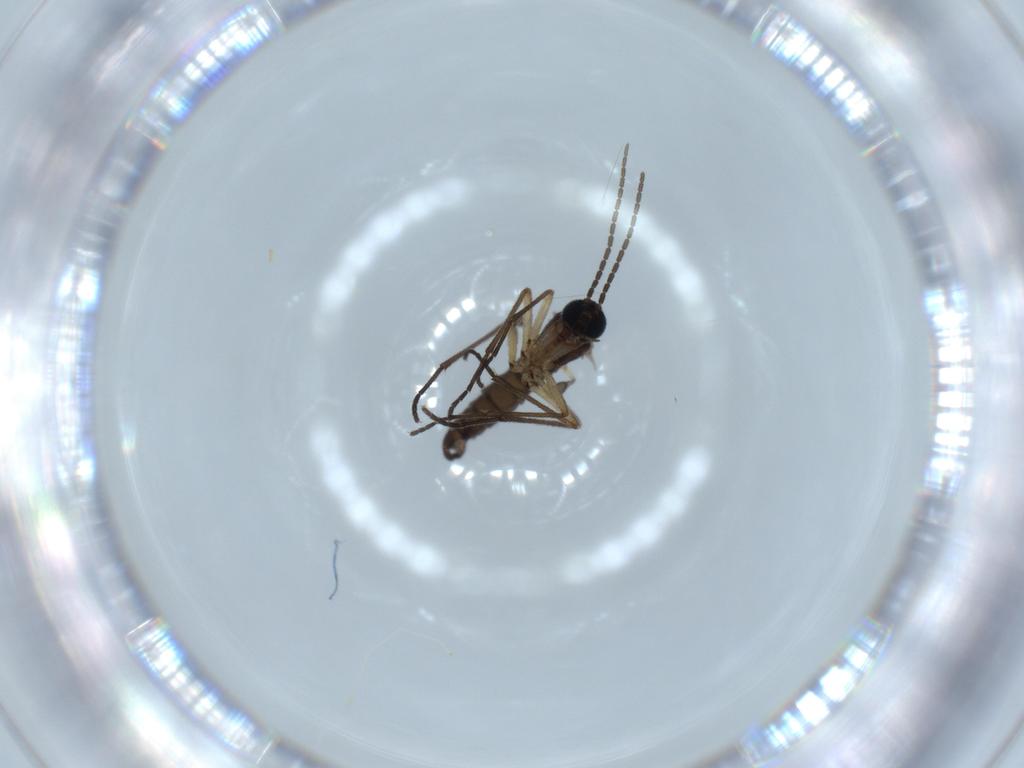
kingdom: Animalia
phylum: Arthropoda
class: Insecta
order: Diptera
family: Sciaridae
